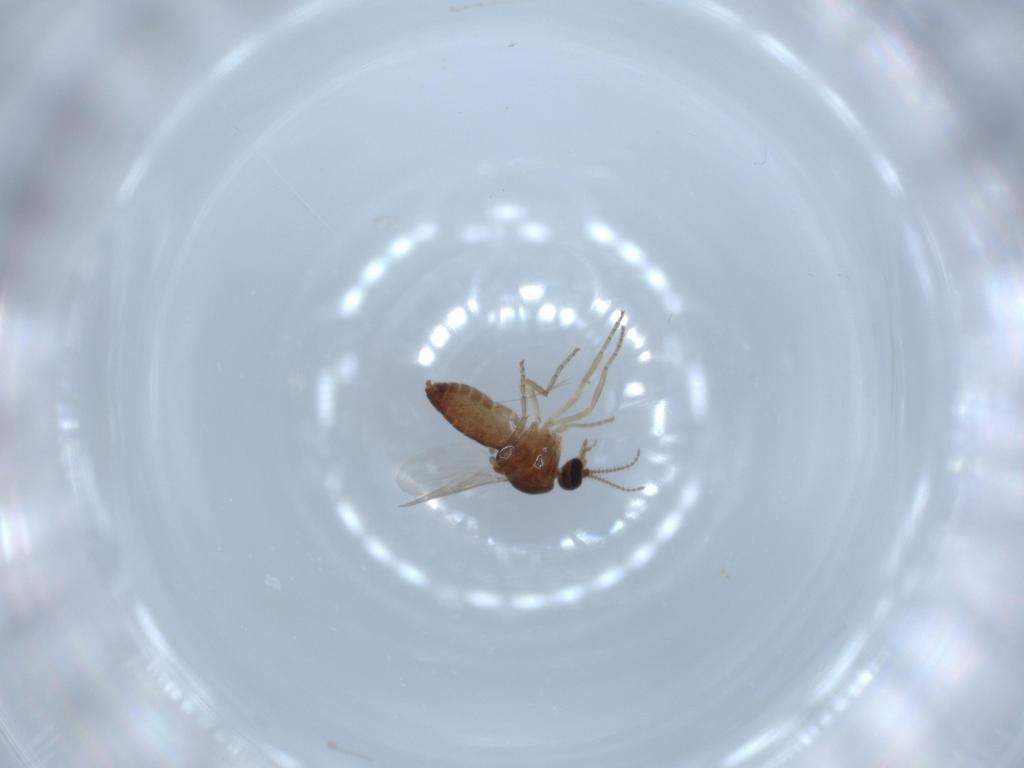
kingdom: Animalia
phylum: Arthropoda
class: Insecta
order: Diptera
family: Ceratopogonidae
